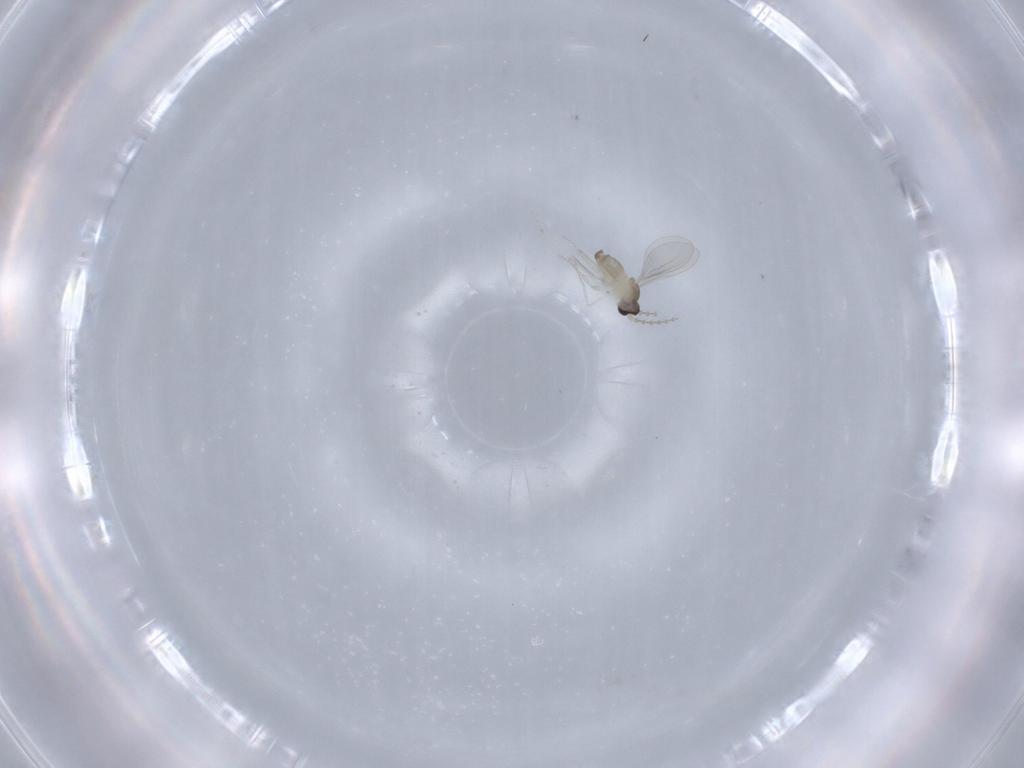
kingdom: Animalia
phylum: Arthropoda
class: Insecta
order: Diptera
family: Cecidomyiidae
